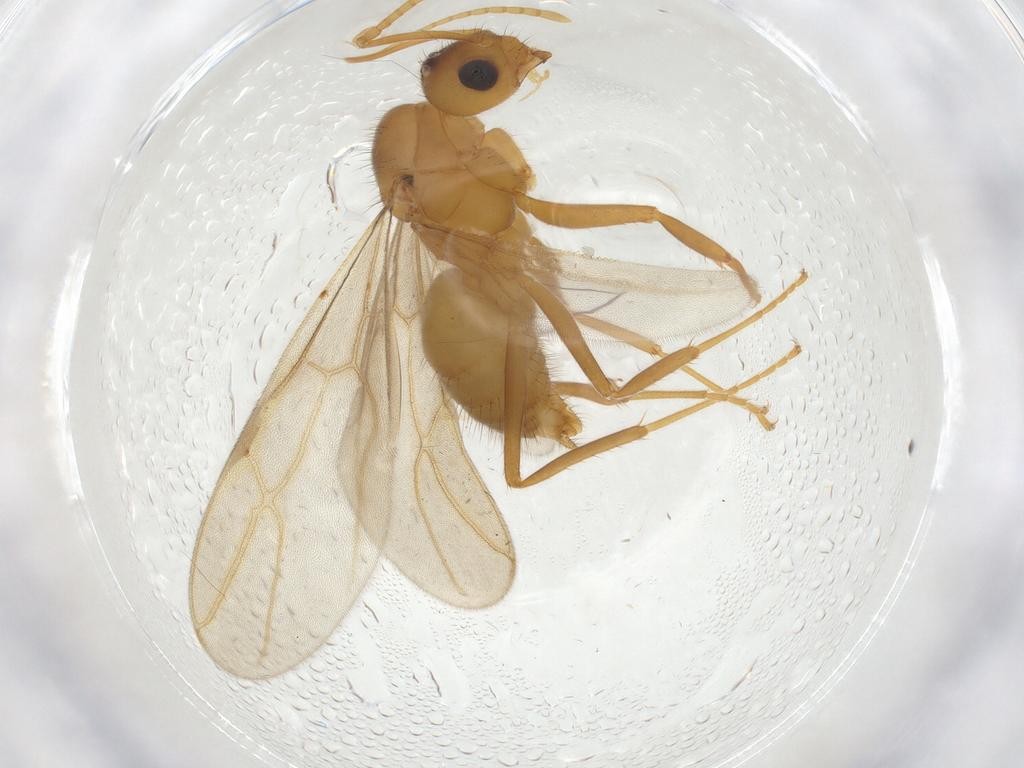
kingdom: Animalia
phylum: Arthropoda
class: Insecta
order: Hymenoptera
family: Formicidae
